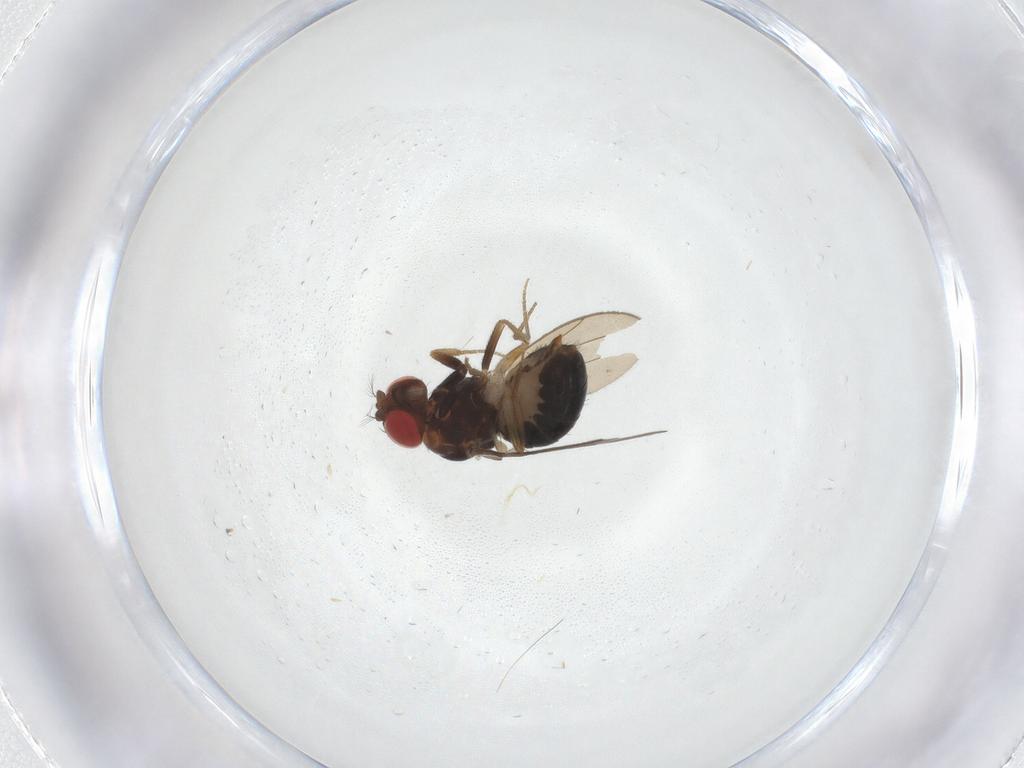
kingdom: Animalia
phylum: Arthropoda
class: Insecta
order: Diptera
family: Drosophilidae
